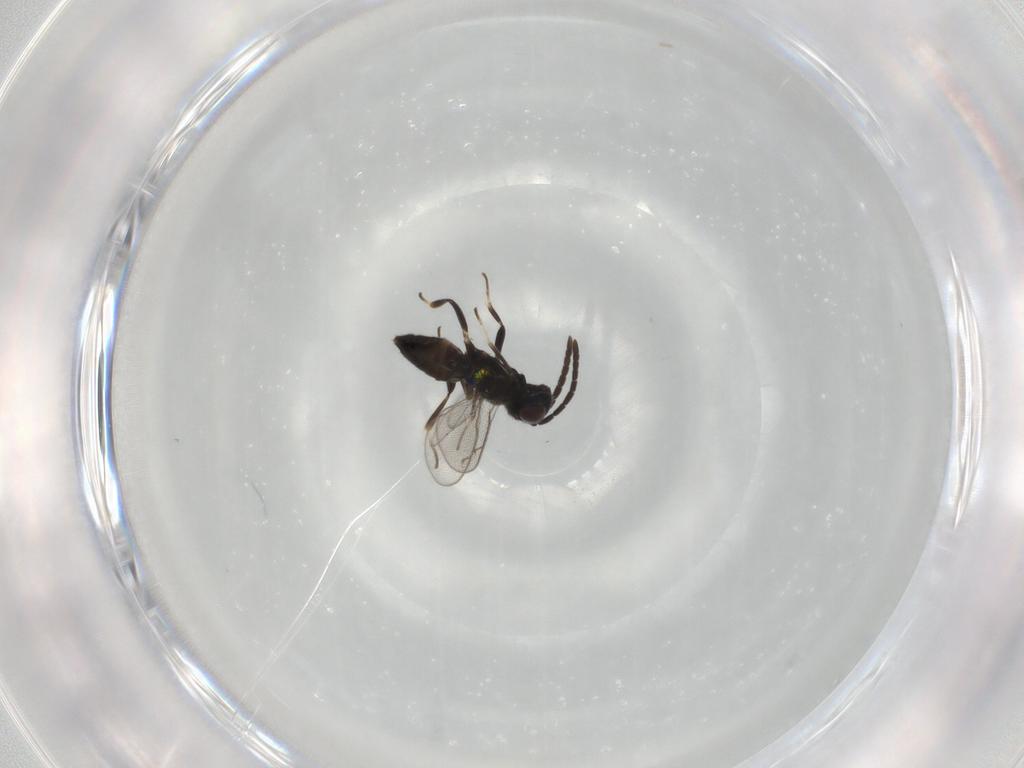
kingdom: Animalia
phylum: Arthropoda
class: Insecta
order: Hymenoptera
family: Eupelmidae
